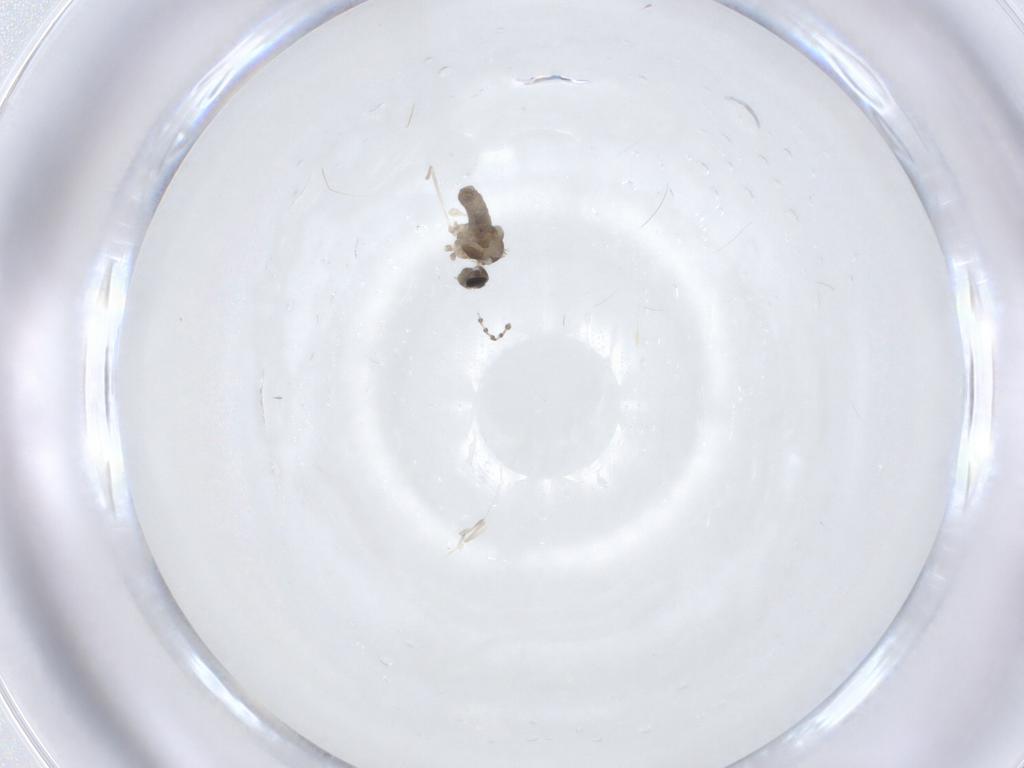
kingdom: Animalia
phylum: Arthropoda
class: Insecta
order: Diptera
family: Psychodidae
